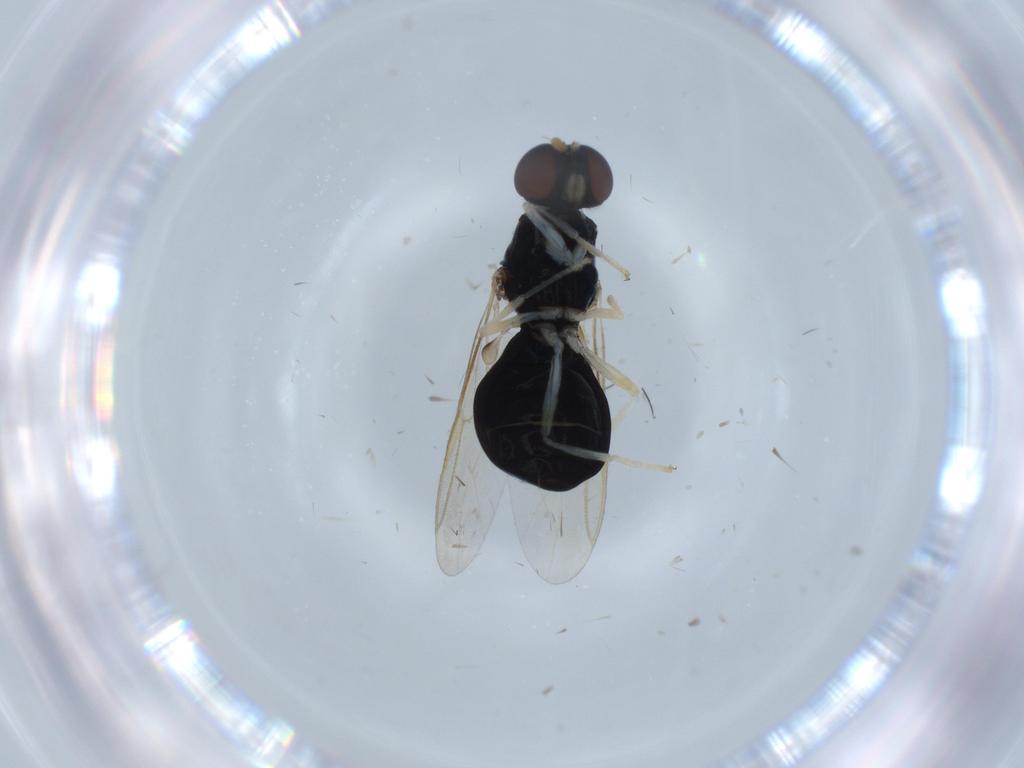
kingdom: Animalia
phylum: Arthropoda
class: Insecta
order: Diptera
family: Stratiomyidae
